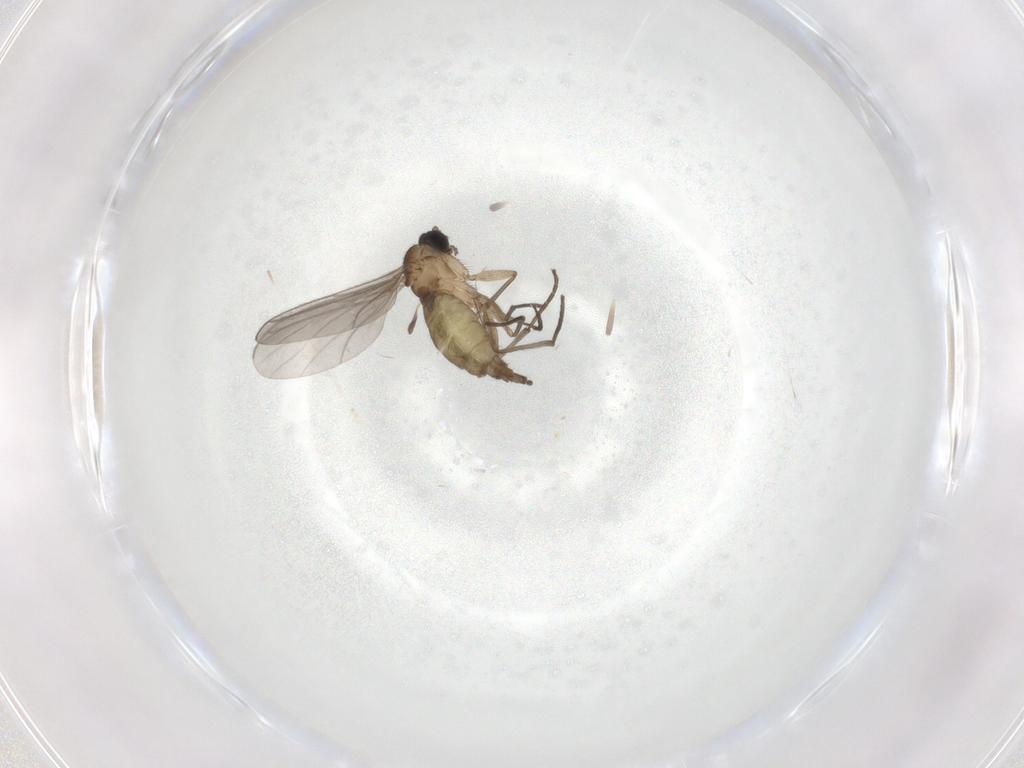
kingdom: Animalia
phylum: Arthropoda
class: Insecta
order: Diptera
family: Sciaridae
